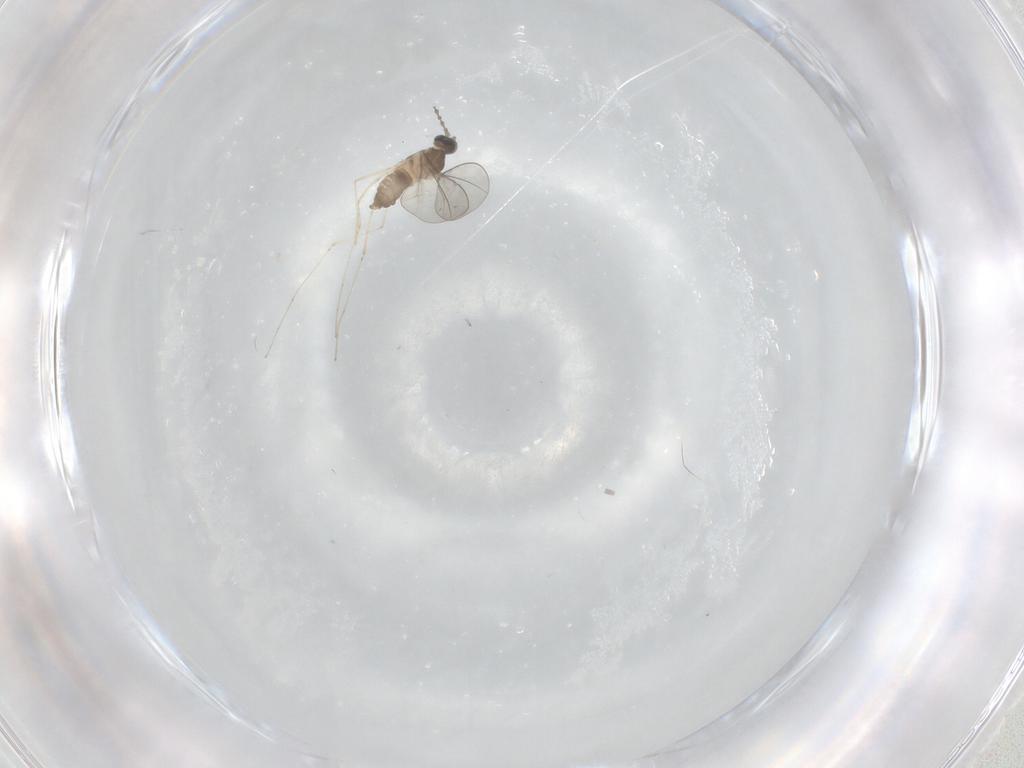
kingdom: Animalia
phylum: Arthropoda
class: Insecta
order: Diptera
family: Cecidomyiidae
